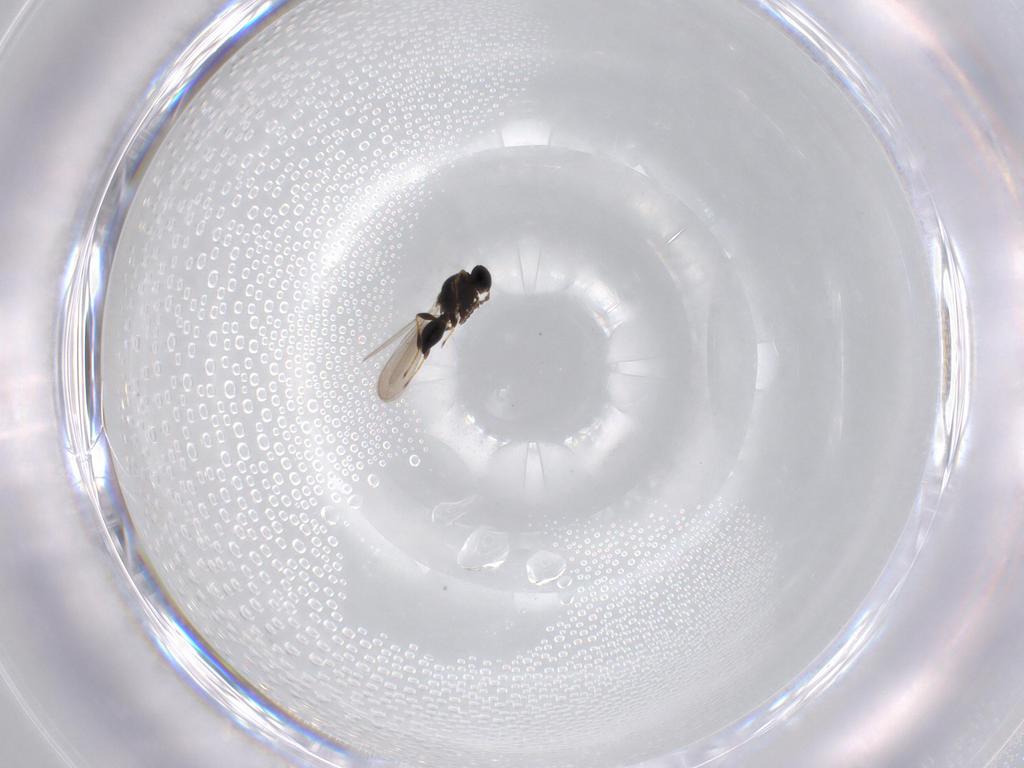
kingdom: Animalia
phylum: Arthropoda
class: Insecta
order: Hymenoptera
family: Platygastridae
